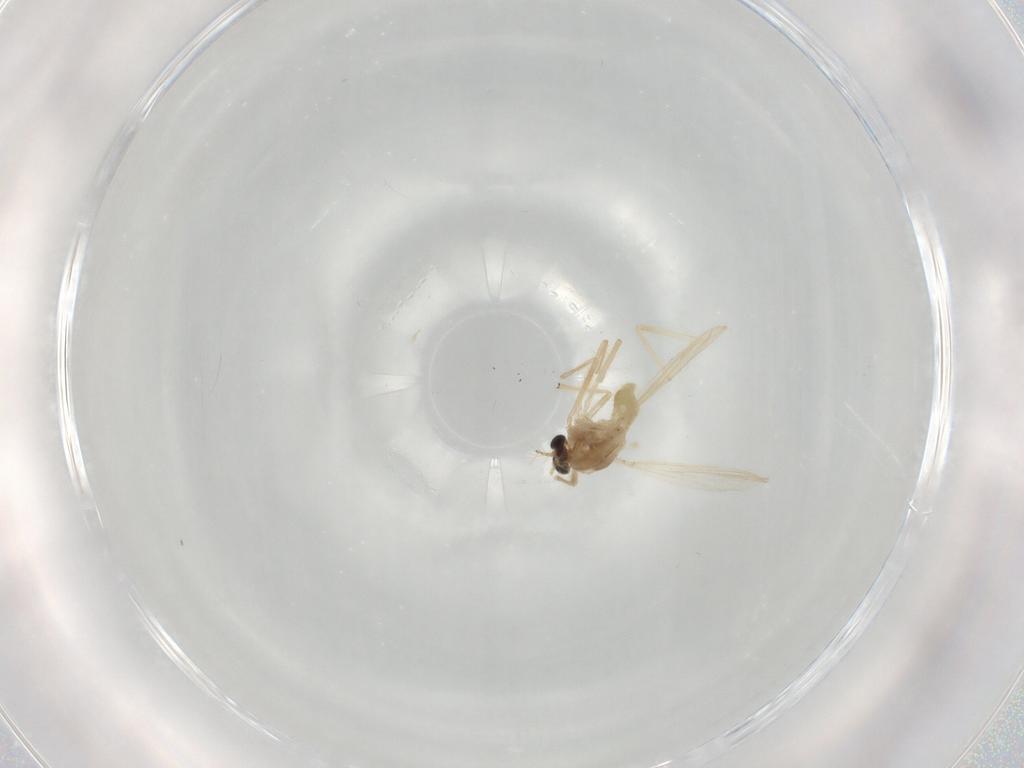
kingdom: Animalia
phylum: Arthropoda
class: Insecta
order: Diptera
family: Chironomidae
